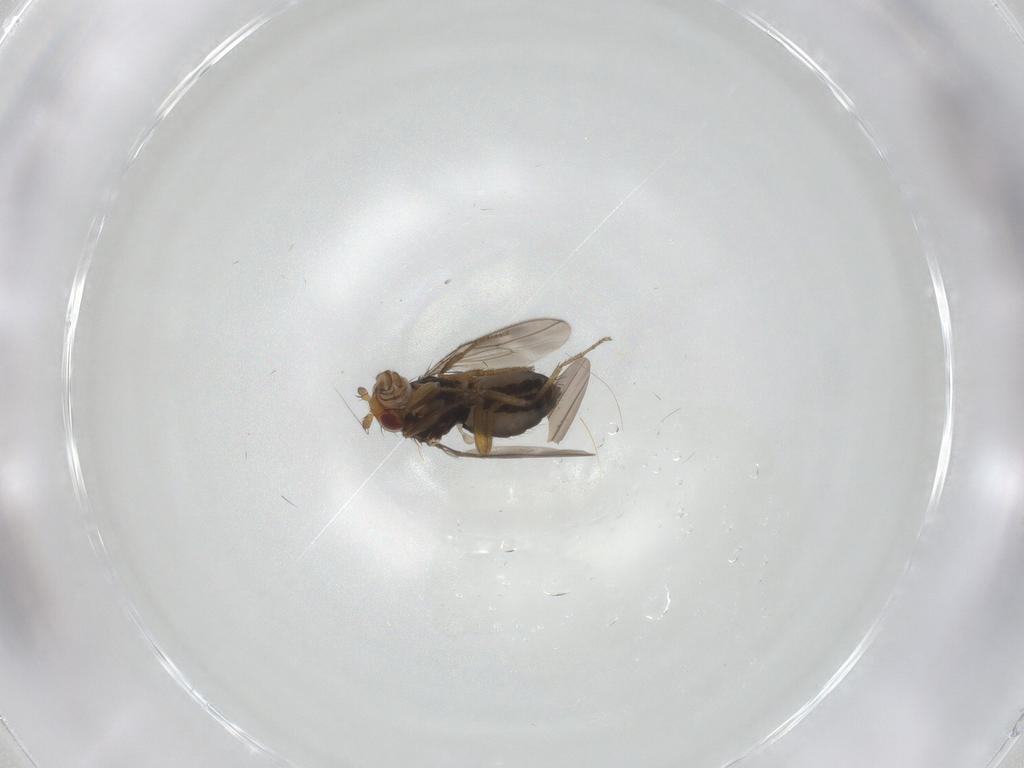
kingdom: Animalia
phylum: Arthropoda
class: Insecta
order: Diptera
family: Sphaeroceridae
